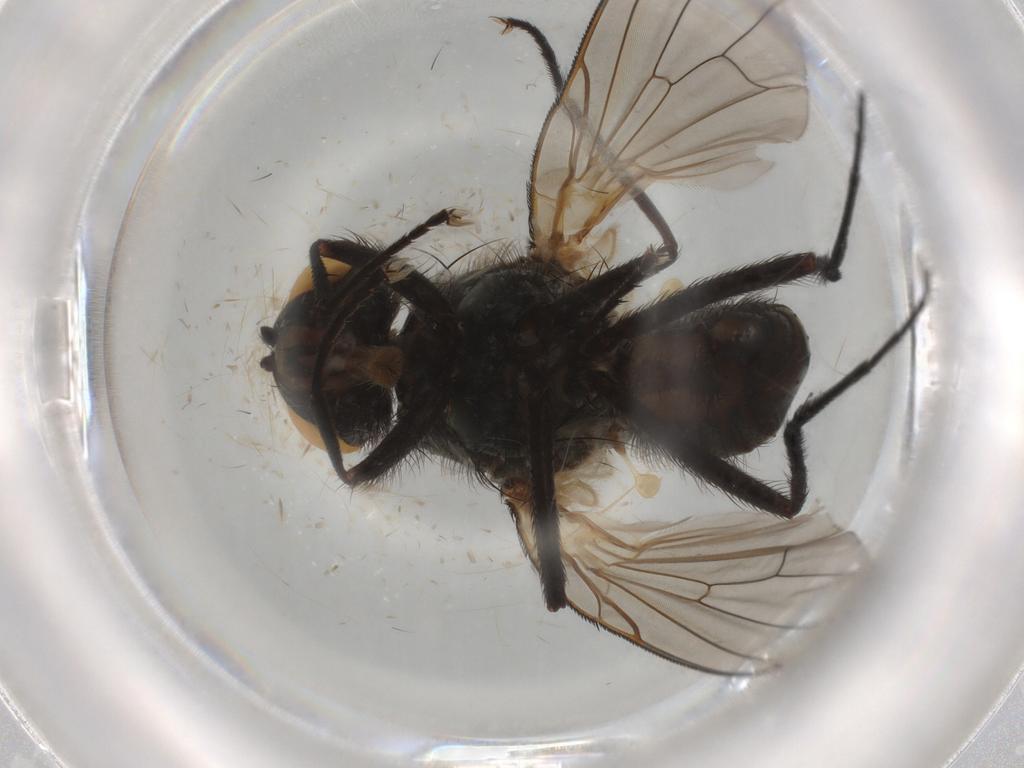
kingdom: Animalia
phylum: Arthropoda
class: Insecta
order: Diptera
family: Anthomyiidae
